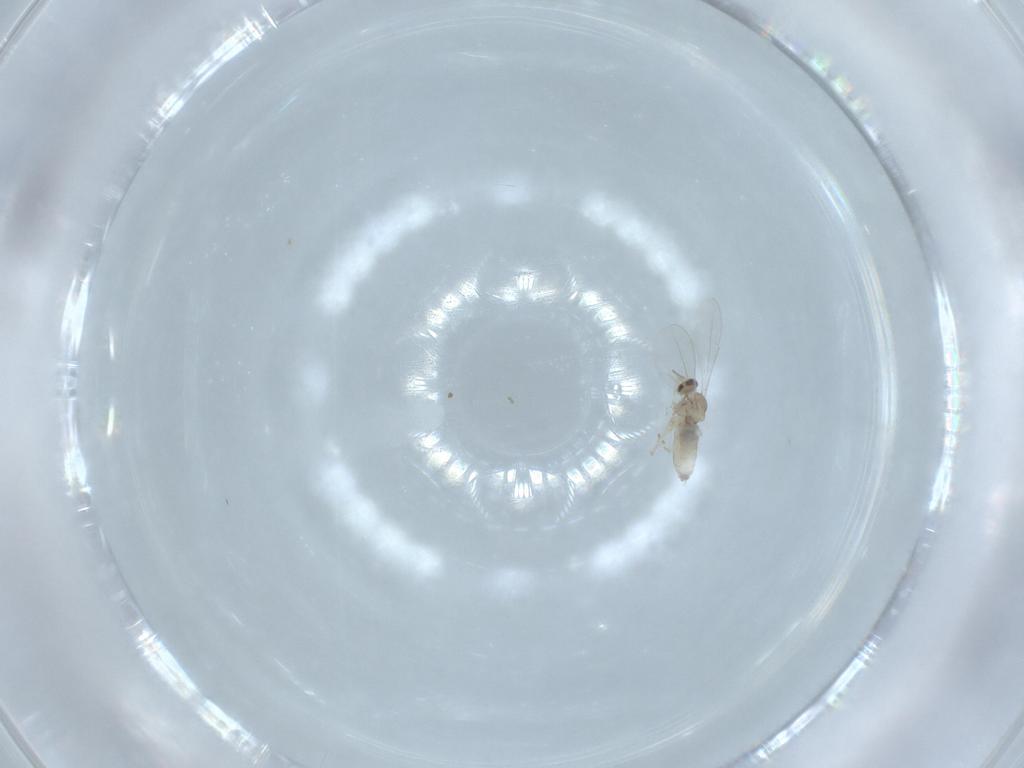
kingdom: Animalia
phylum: Arthropoda
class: Insecta
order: Diptera
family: Cecidomyiidae
